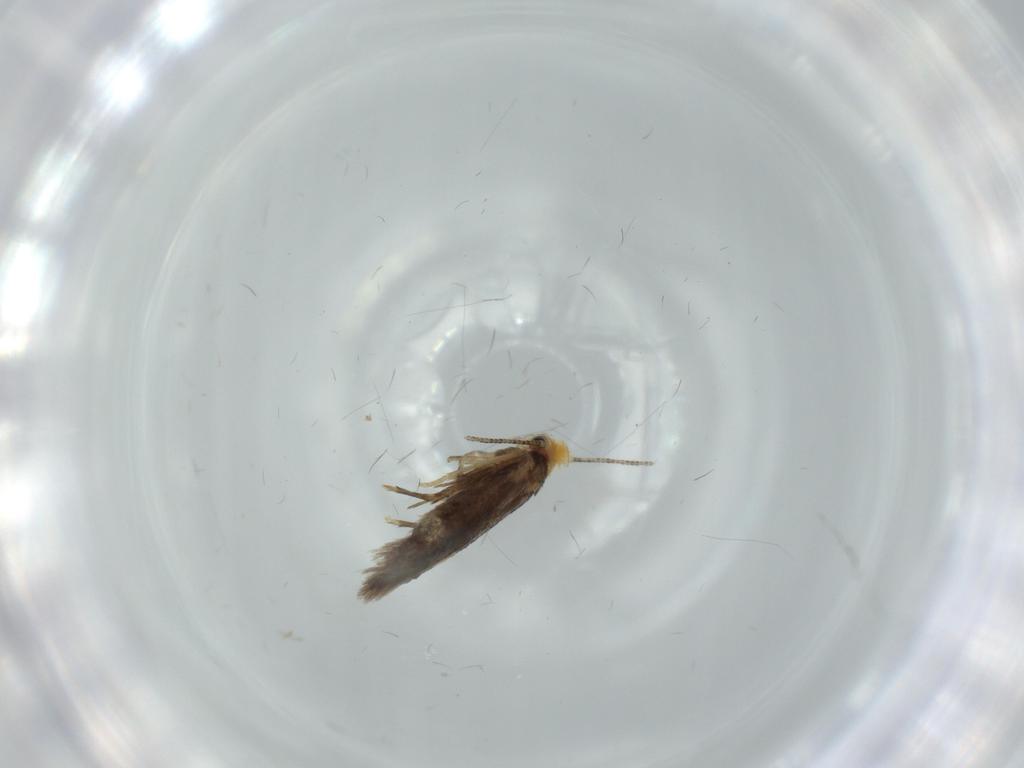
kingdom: Animalia
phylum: Arthropoda
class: Insecta
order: Lepidoptera
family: Nepticulidae
